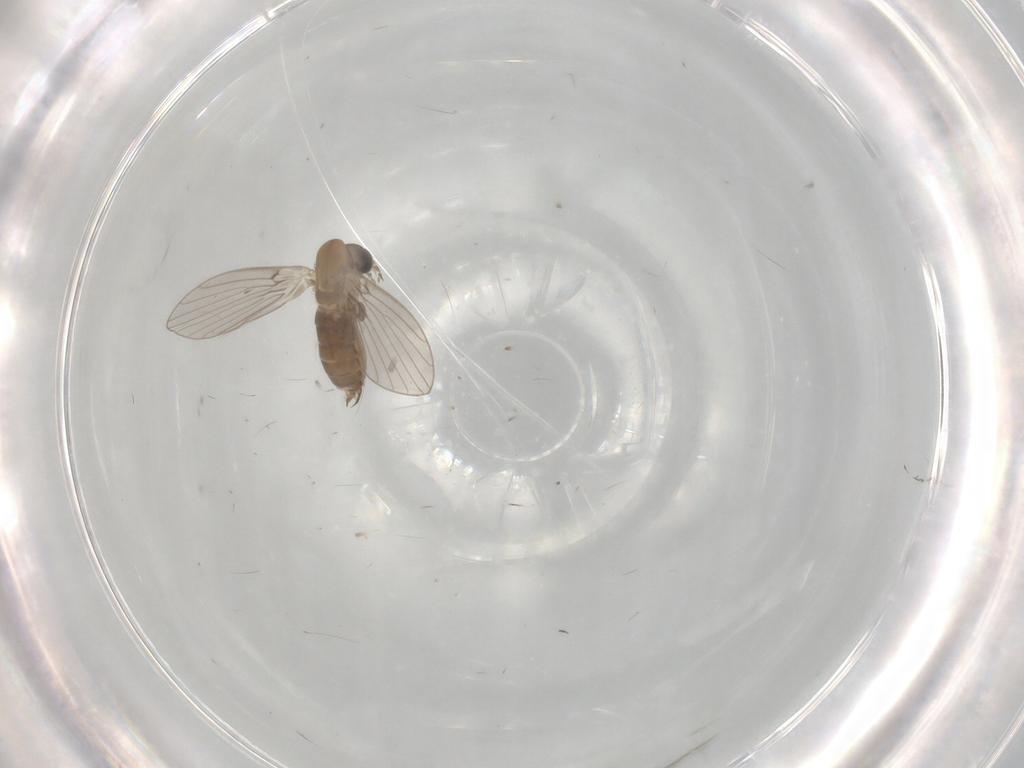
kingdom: Animalia
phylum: Arthropoda
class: Insecta
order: Diptera
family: Psychodidae
